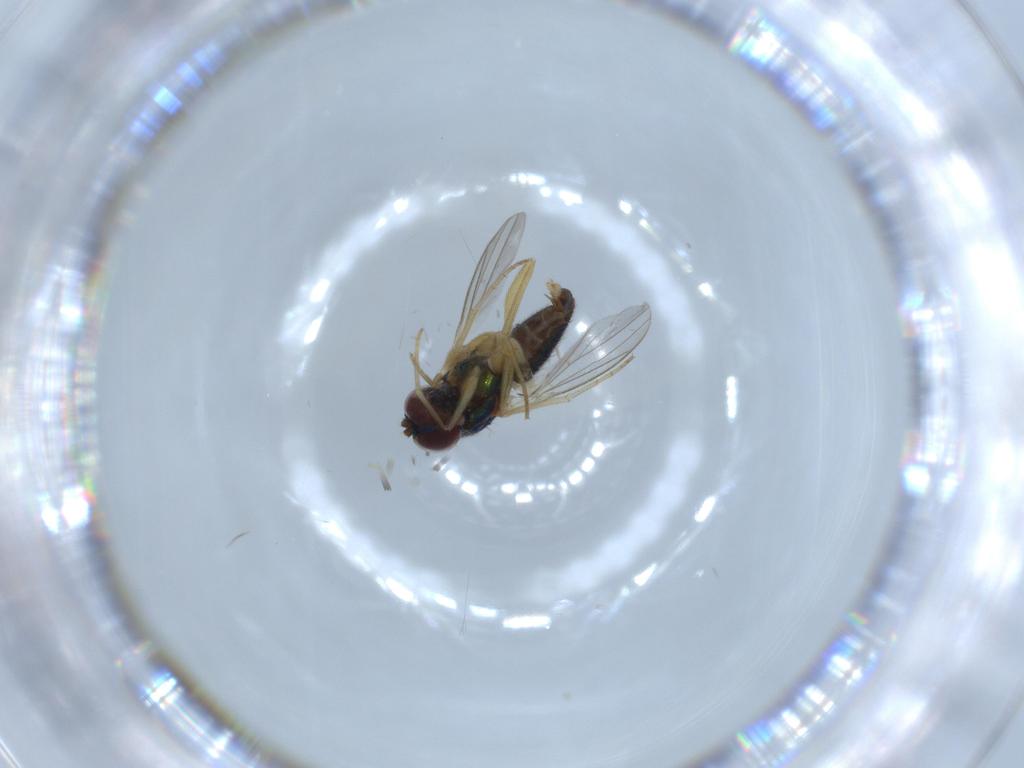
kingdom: Animalia
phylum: Arthropoda
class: Insecta
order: Diptera
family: Dolichopodidae
